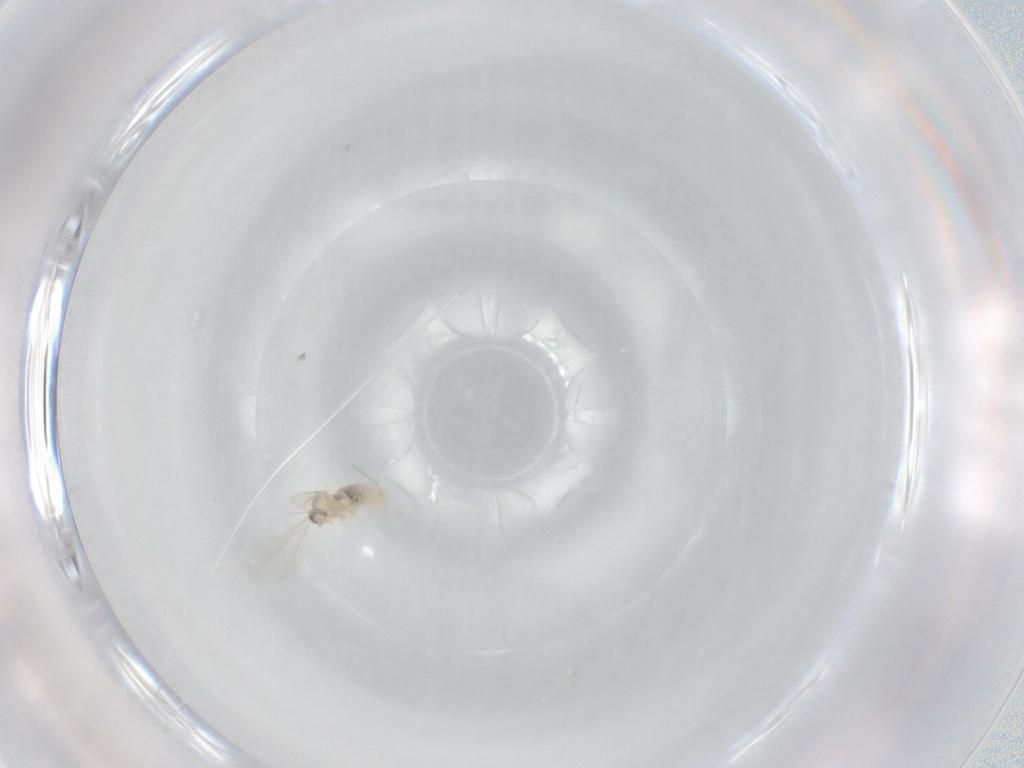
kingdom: Animalia
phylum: Arthropoda
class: Insecta
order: Diptera
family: Cecidomyiidae
